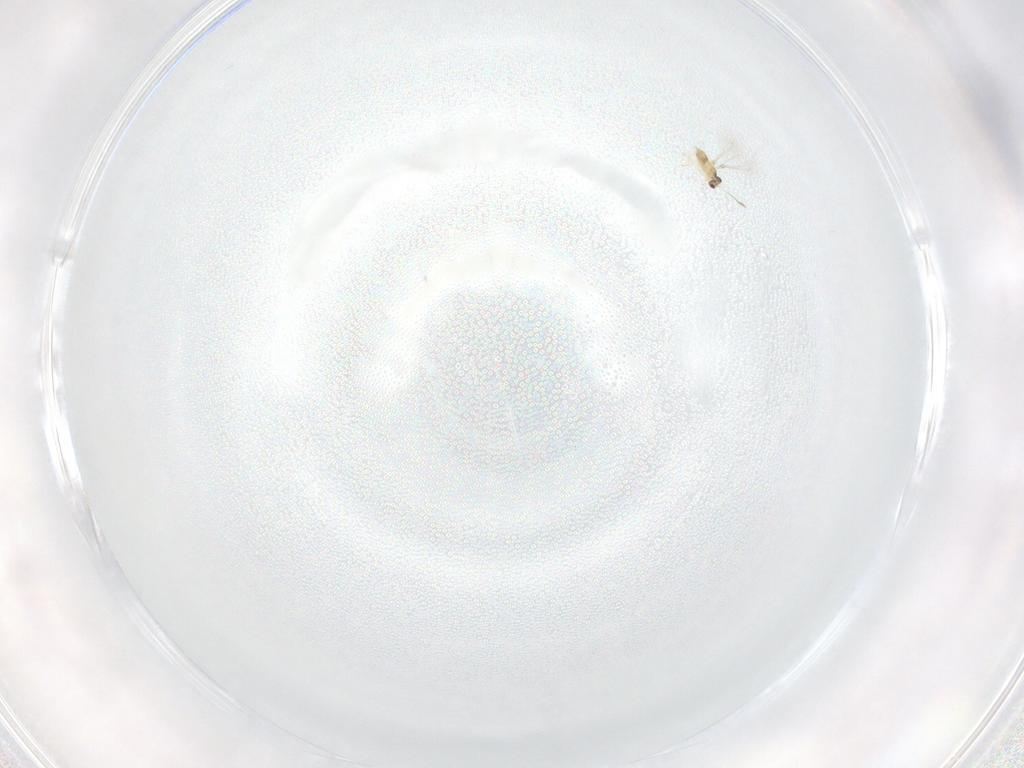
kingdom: Animalia
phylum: Arthropoda
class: Insecta
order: Hymenoptera
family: Mymaridae
